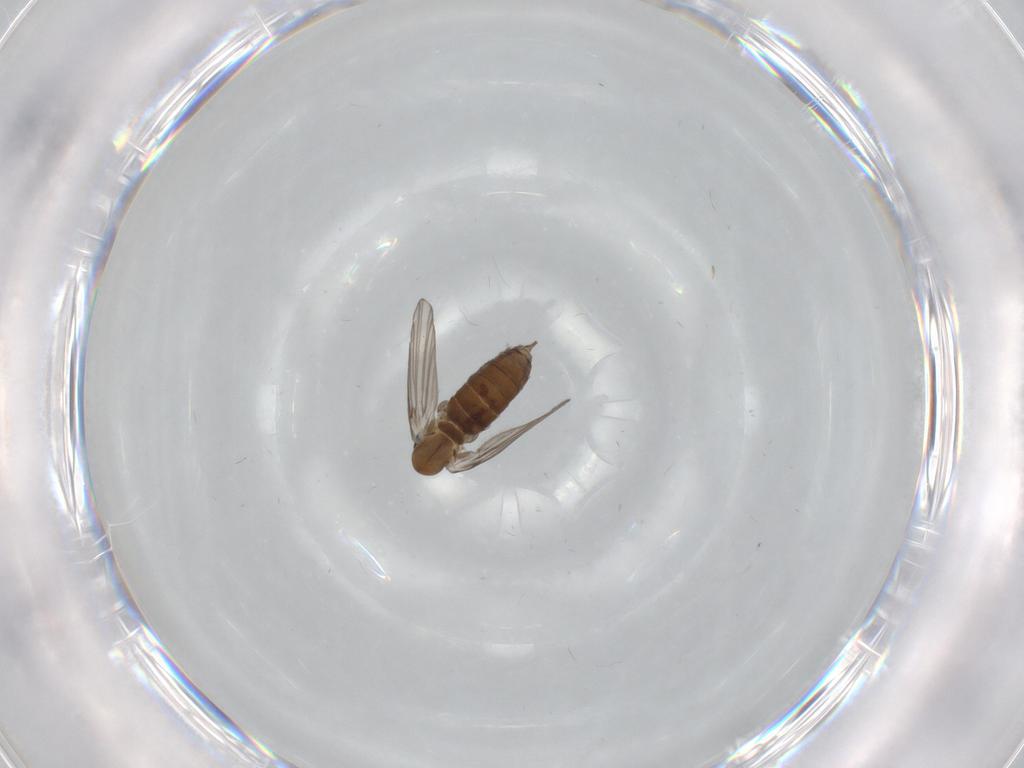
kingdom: Animalia
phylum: Arthropoda
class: Insecta
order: Diptera
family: Psychodidae
